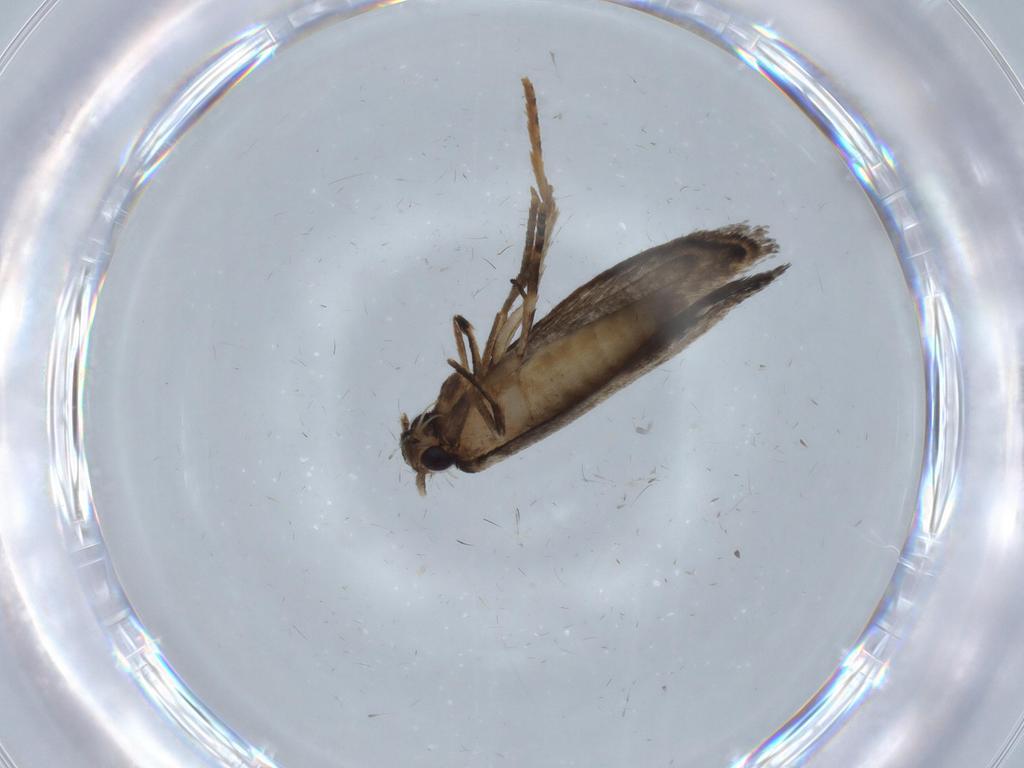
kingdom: Animalia
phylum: Arthropoda
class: Insecta
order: Lepidoptera
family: Tineidae
